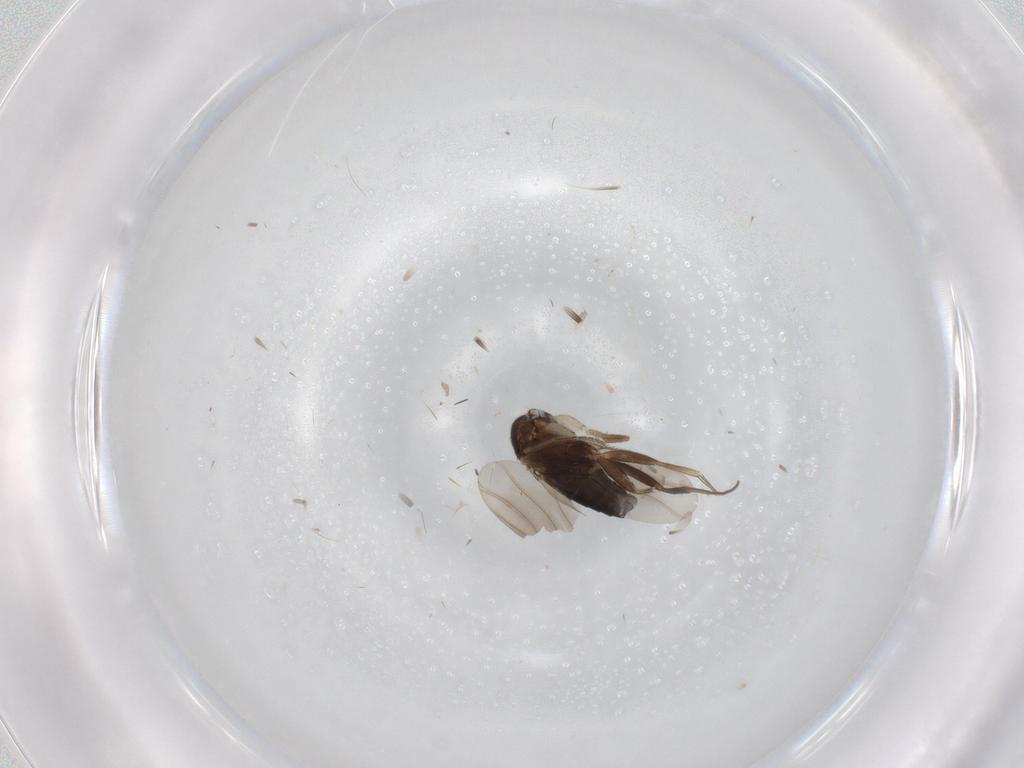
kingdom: Animalia
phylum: Arthropoda
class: Insecta
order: Diptera
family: Phoridae
